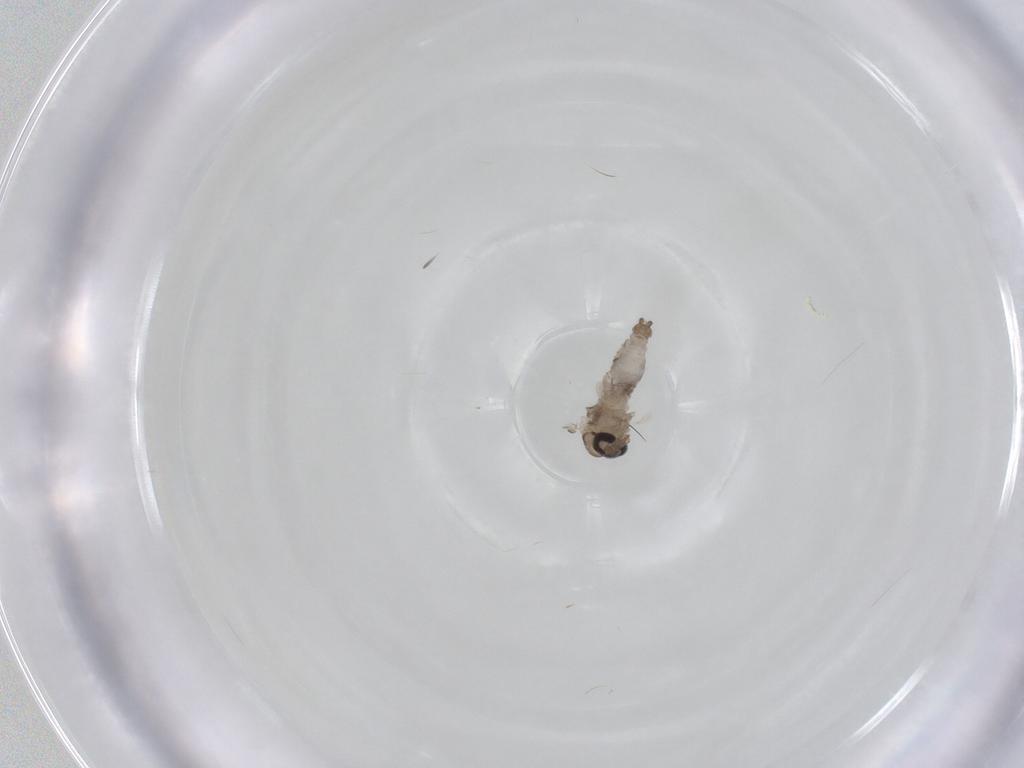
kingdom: Animalia
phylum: Arthropoda
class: Insecta
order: Diptera
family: Psychodidae
